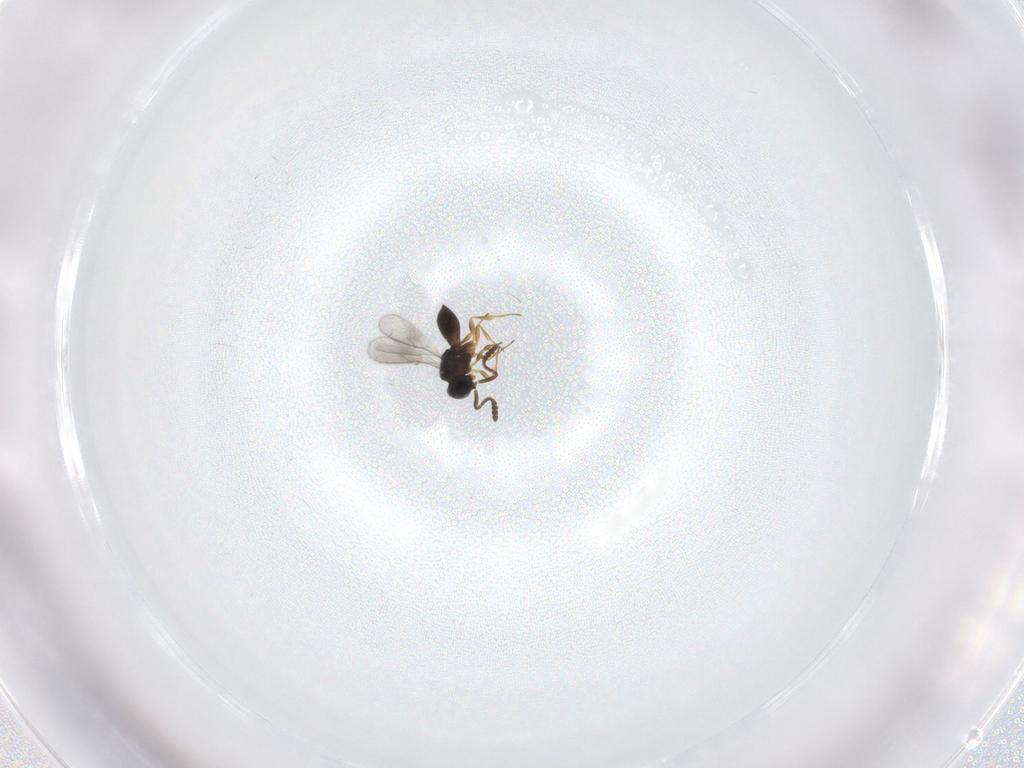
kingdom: Animalia
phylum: Arthropoda
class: Insecta
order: Hymenoptera
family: Scelionidae
